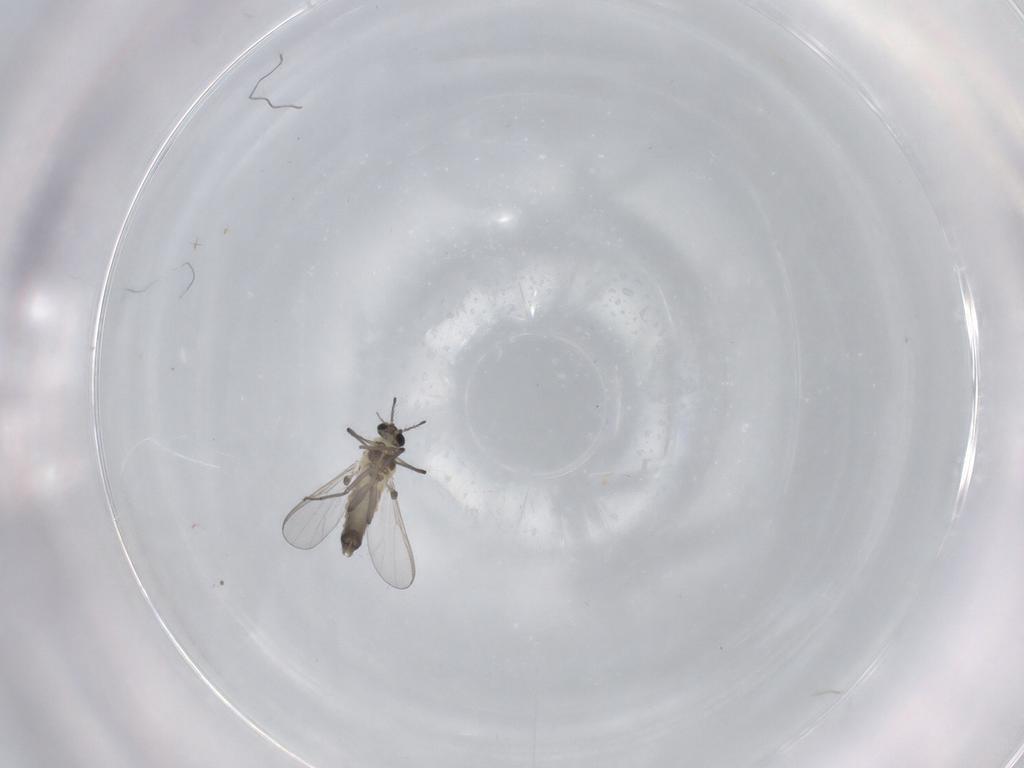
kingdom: Animalia
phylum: Arthropoda
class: Insecta
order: Diptera
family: Chironomidae
